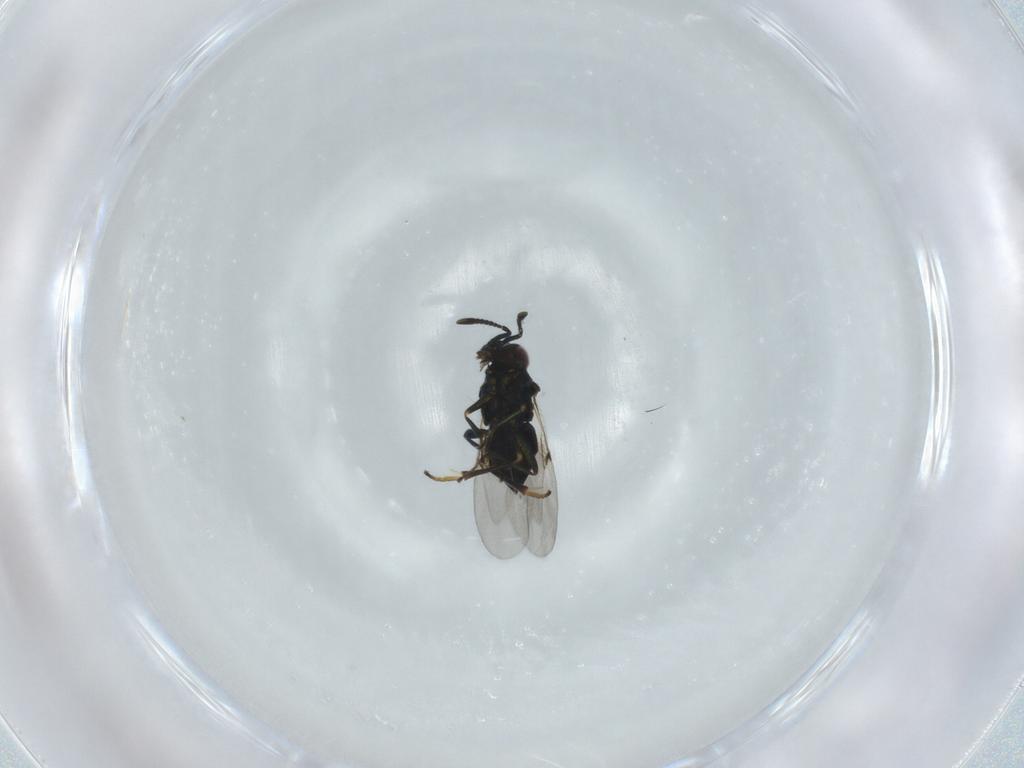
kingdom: Animalia
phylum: Arthropoda
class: Insecta
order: Hymenoptera
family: Encyrtidae
